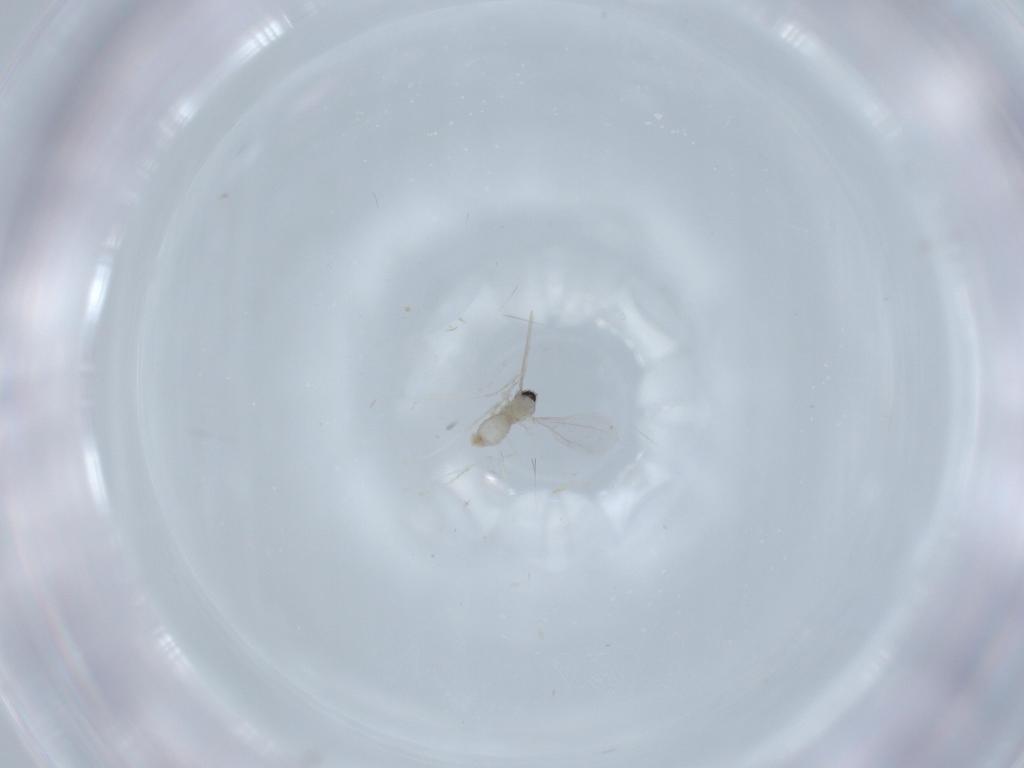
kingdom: Animalia
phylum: Arthropoda
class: Insecta
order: Diptera
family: Cecidomyiidae
